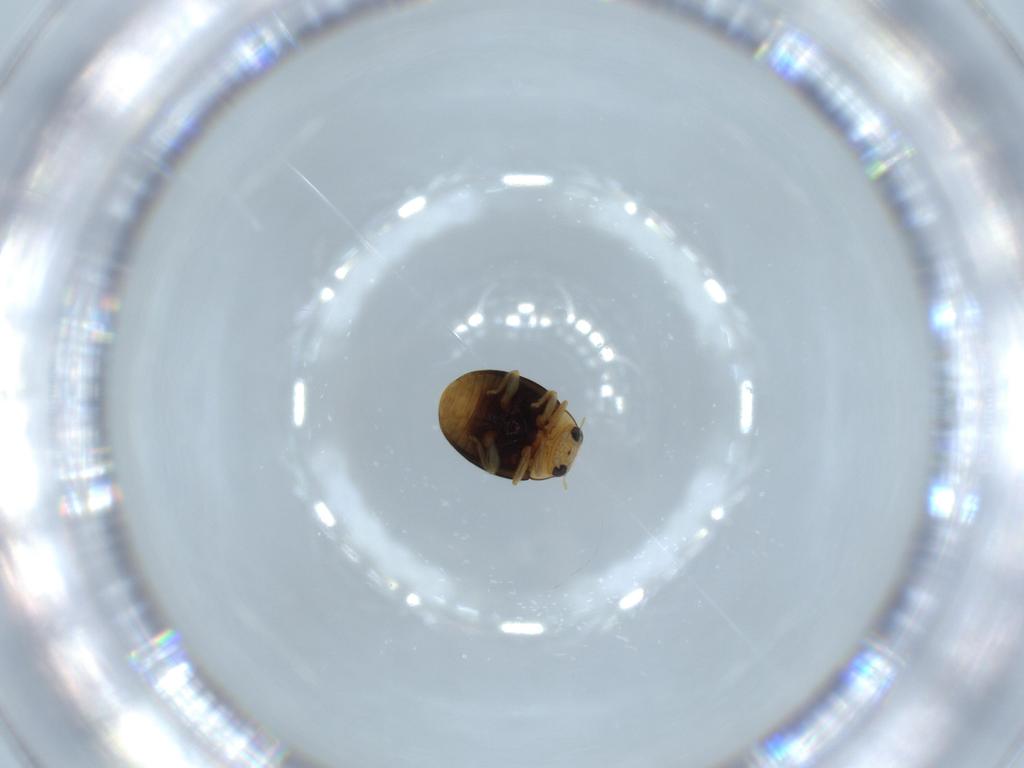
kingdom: Animalia
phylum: Arthropoda
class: Insecta
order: Coleoptera
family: Coccinellidae
